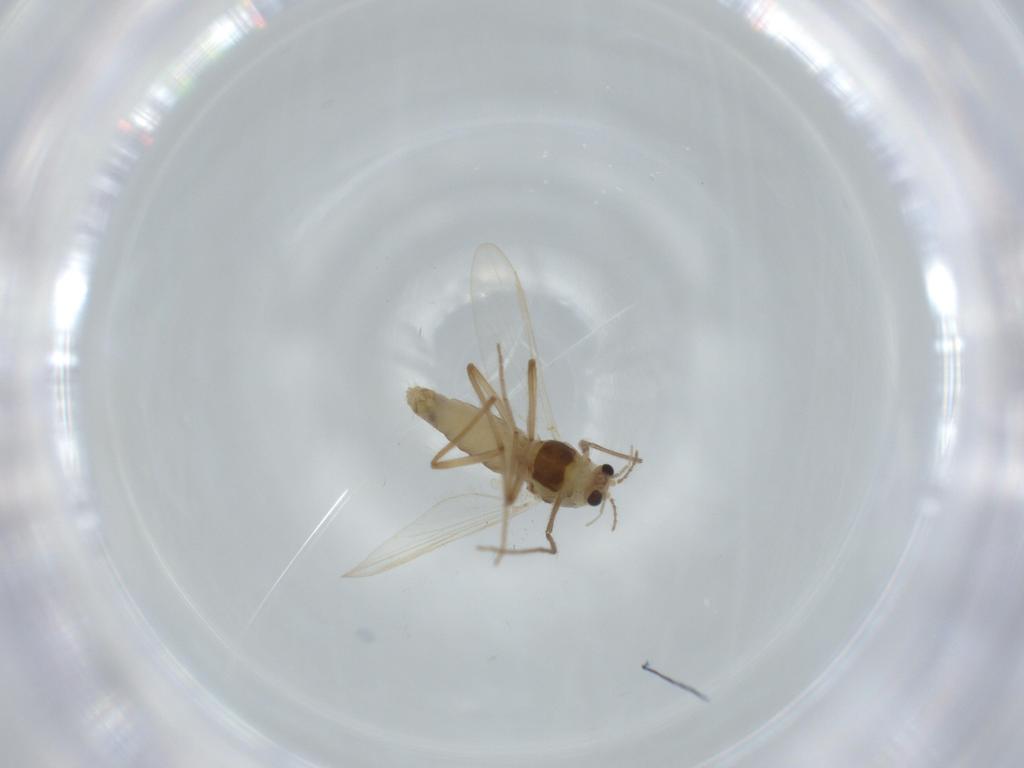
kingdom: Animalia
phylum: Arthropoda
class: Insecta
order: Diptera
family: Chironomidae
